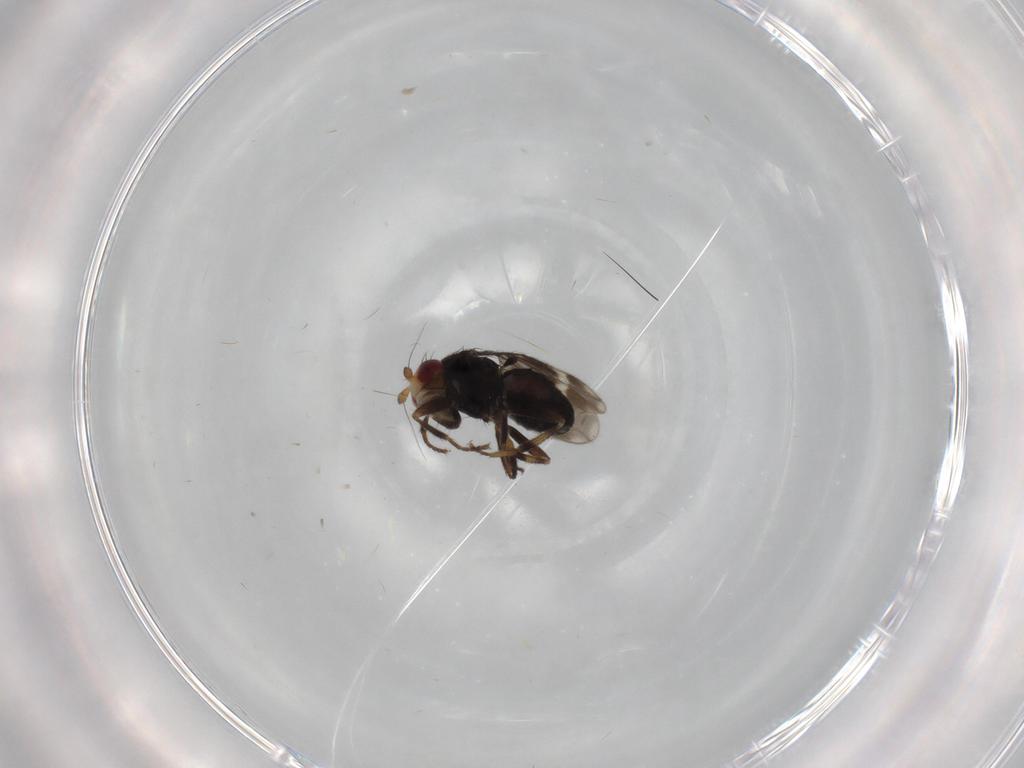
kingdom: Animalia
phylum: Arthropoda
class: Insecta
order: Diptera
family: Sphaeroceridae
